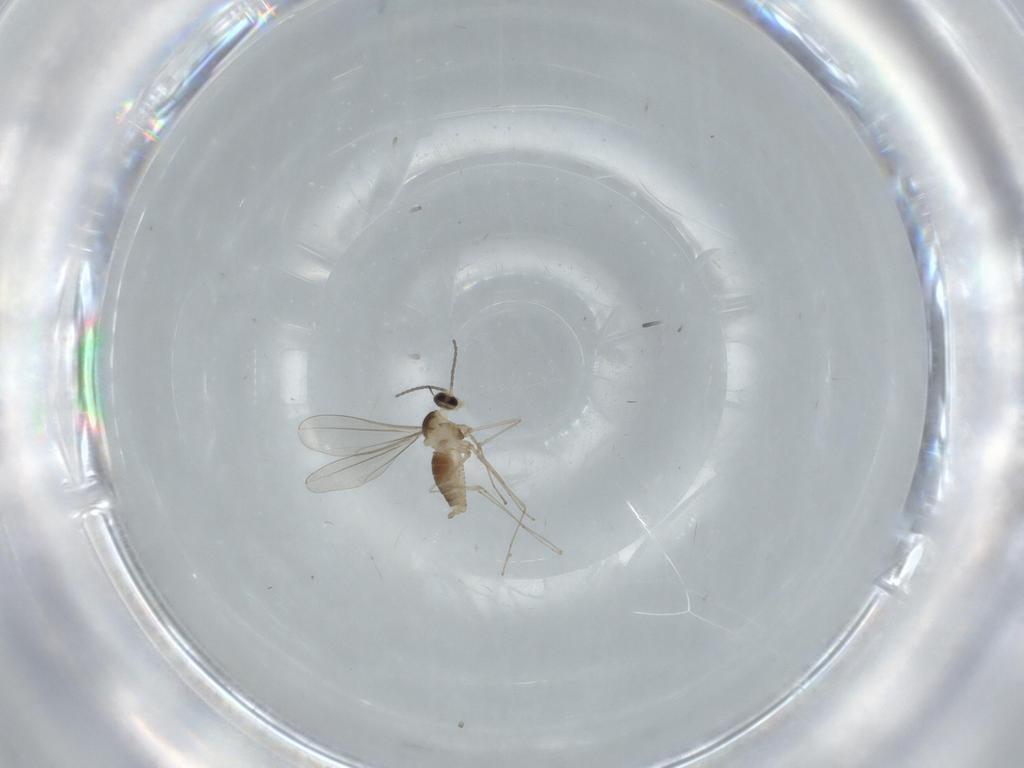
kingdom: Animalia
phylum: Arthropoda
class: Insecta
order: Diptera
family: Cecidomyiidae
